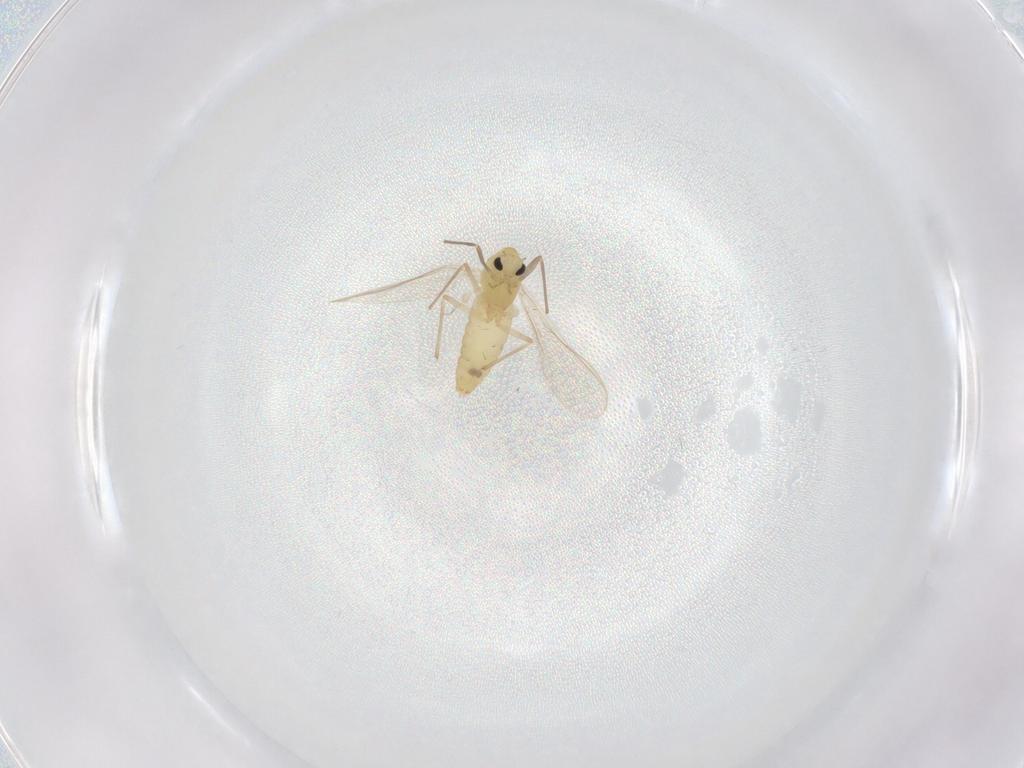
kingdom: Animalia
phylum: Arthropoda
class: Insecta
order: Diptera
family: Chironomidae
